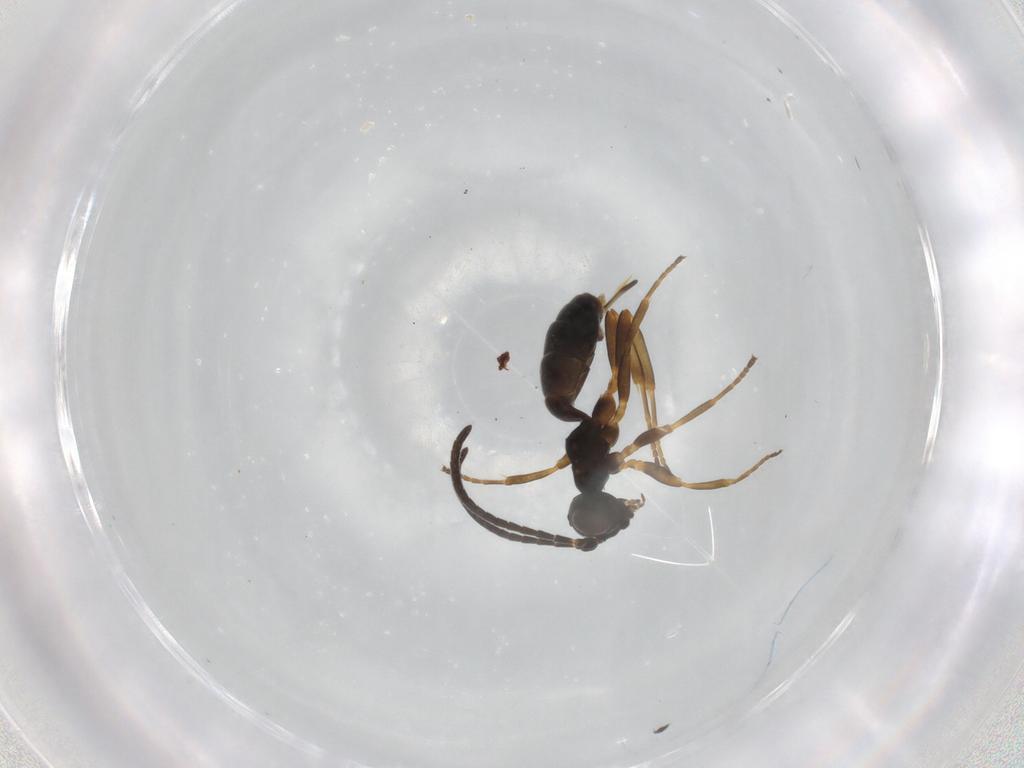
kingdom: Animalia
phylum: Arthropoda
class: Insecta
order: Hymenoptera
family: Ichneumonidae
